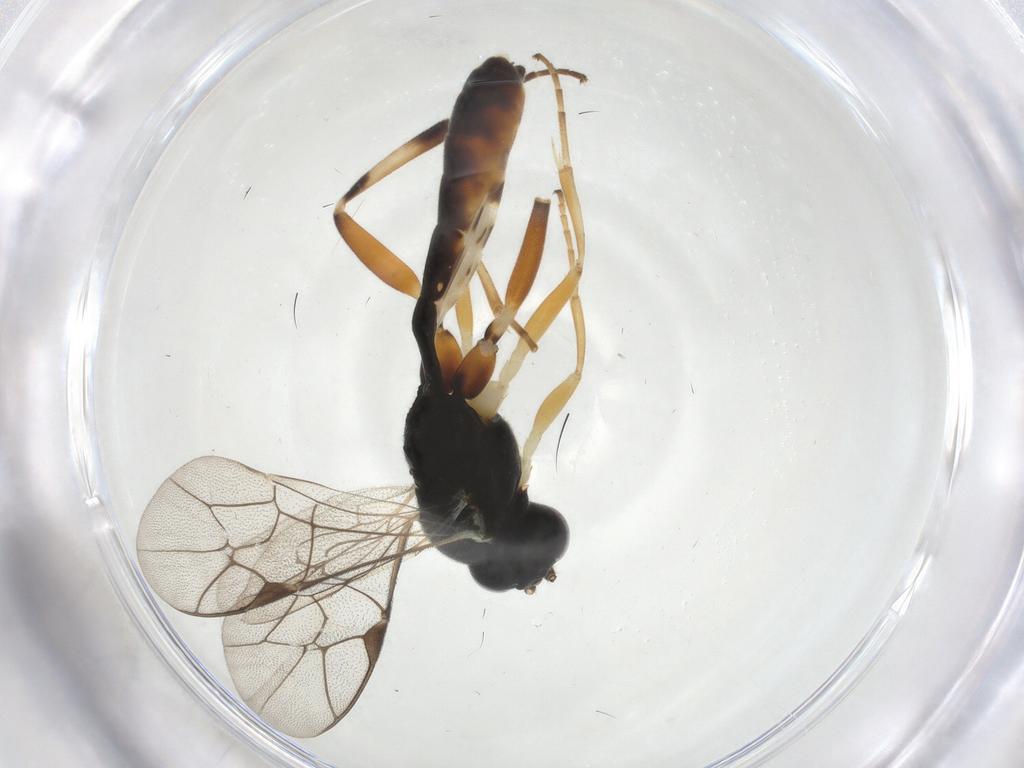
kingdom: Animalia
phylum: Arthropoda
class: Insecta
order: Hymenoptera
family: Ichneumonidae
